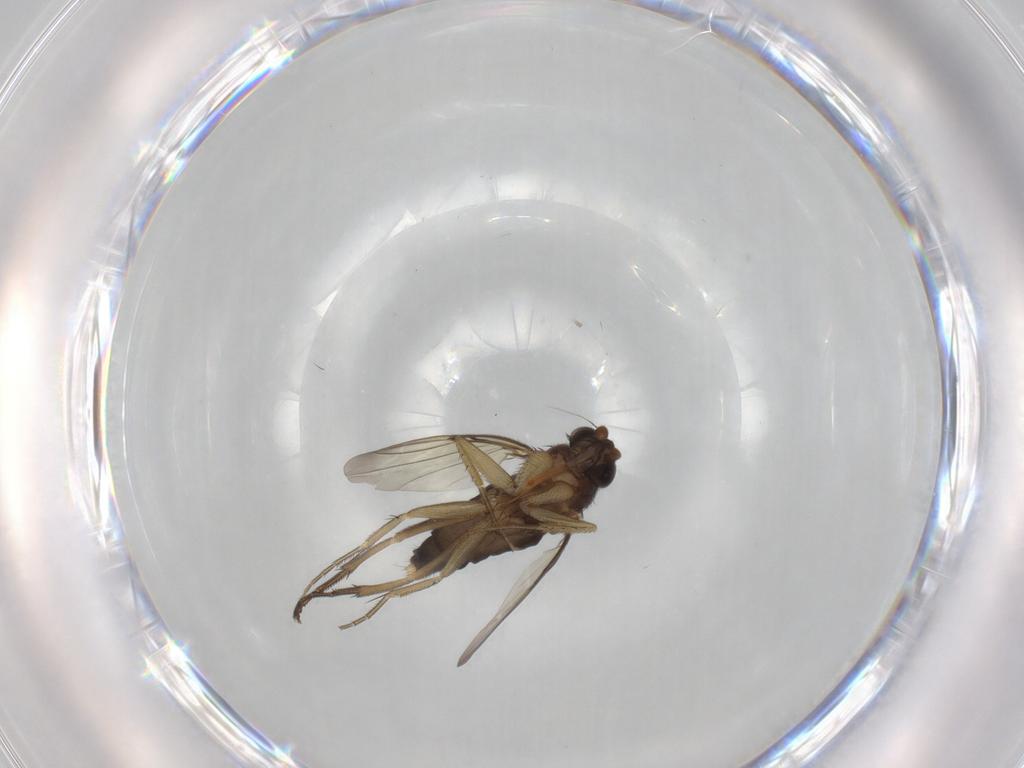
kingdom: Animalia
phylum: Arthropoda
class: Insecta
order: Diptera
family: Phoridae
